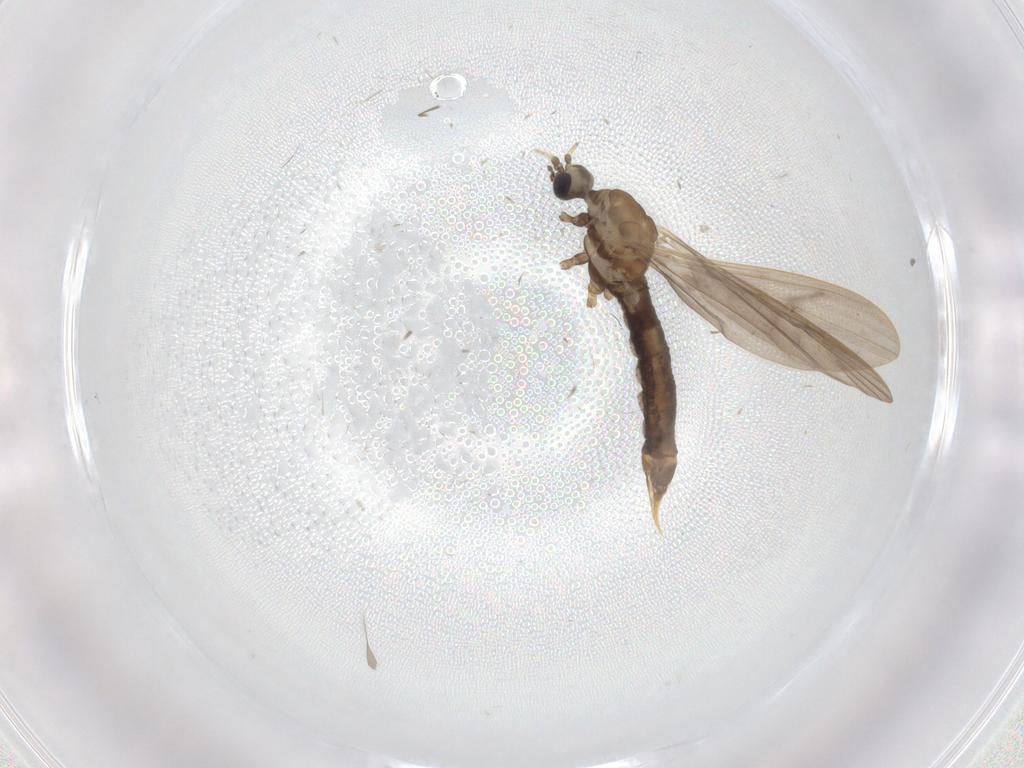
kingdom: Animalia
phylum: Arthropoda
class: Insecta
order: Diptera
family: Limoniidae
